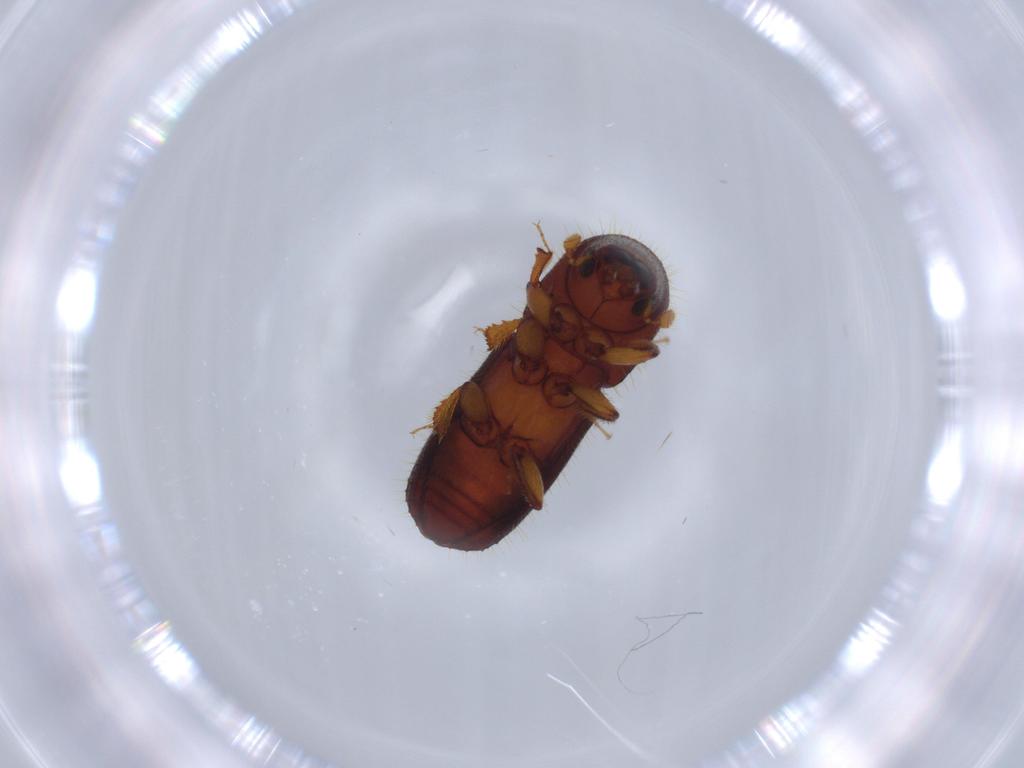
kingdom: Animalia
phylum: Arthropoda
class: Insecta
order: Coleoptera
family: Curculionidae
